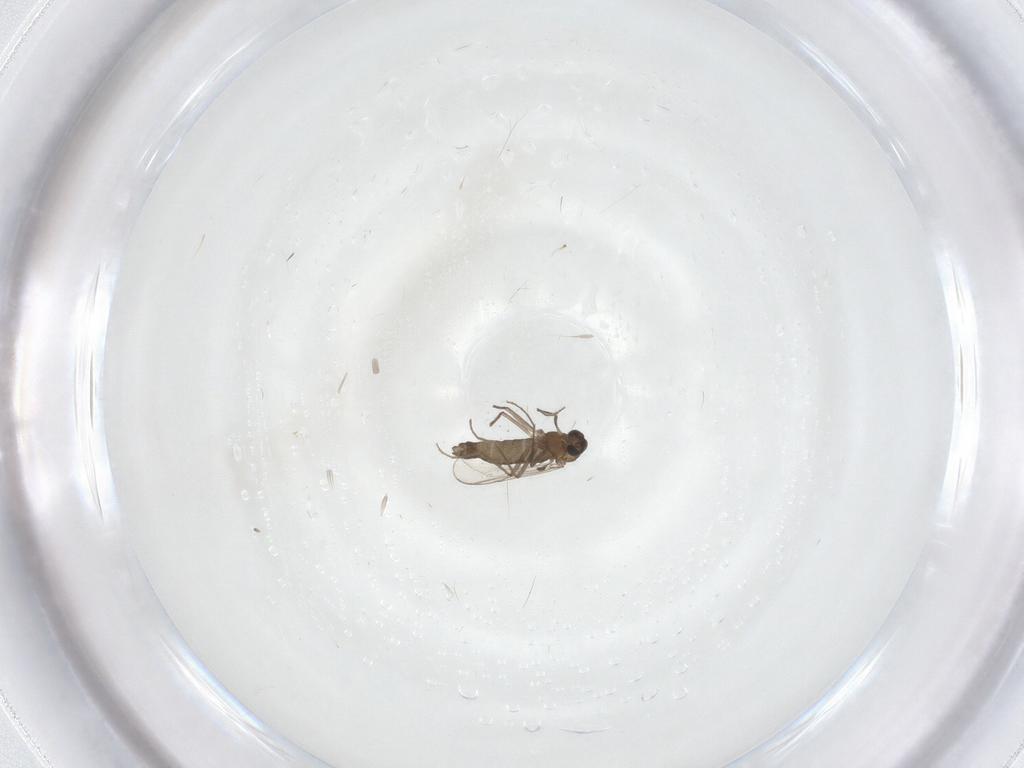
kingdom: Animalia
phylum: Arthropoda
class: Insecta
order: Diptera
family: Chironomidae
